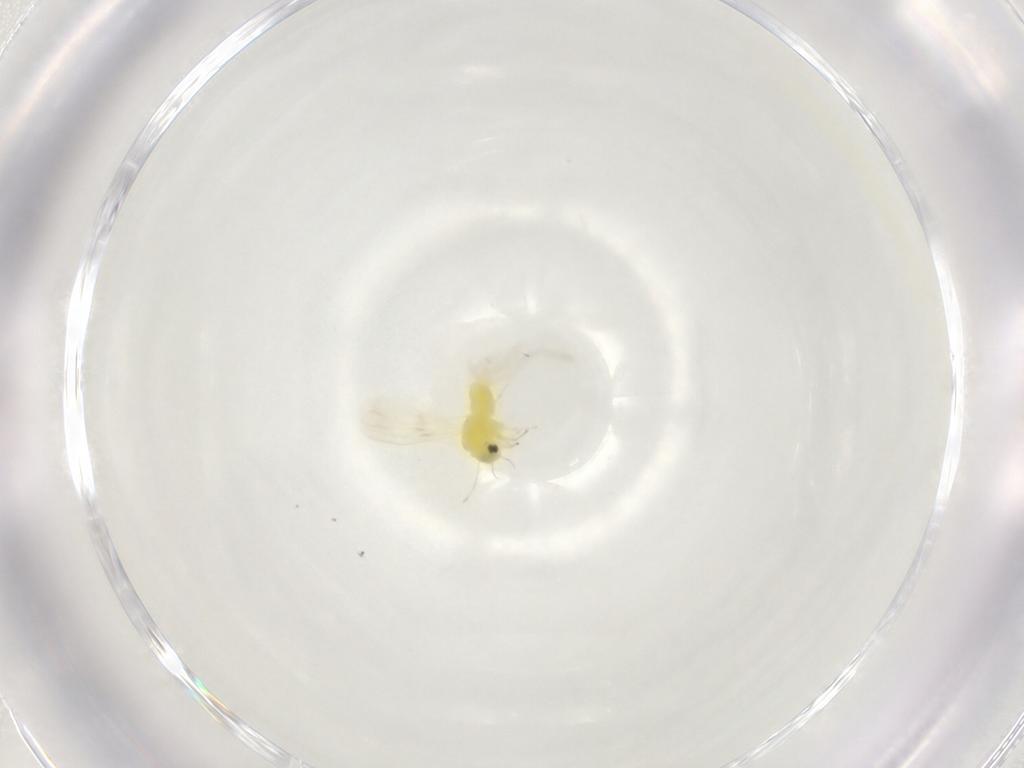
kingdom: Animalia
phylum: Arthropoda
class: Insecta
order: Hemiptera
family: Aleyrodidae
